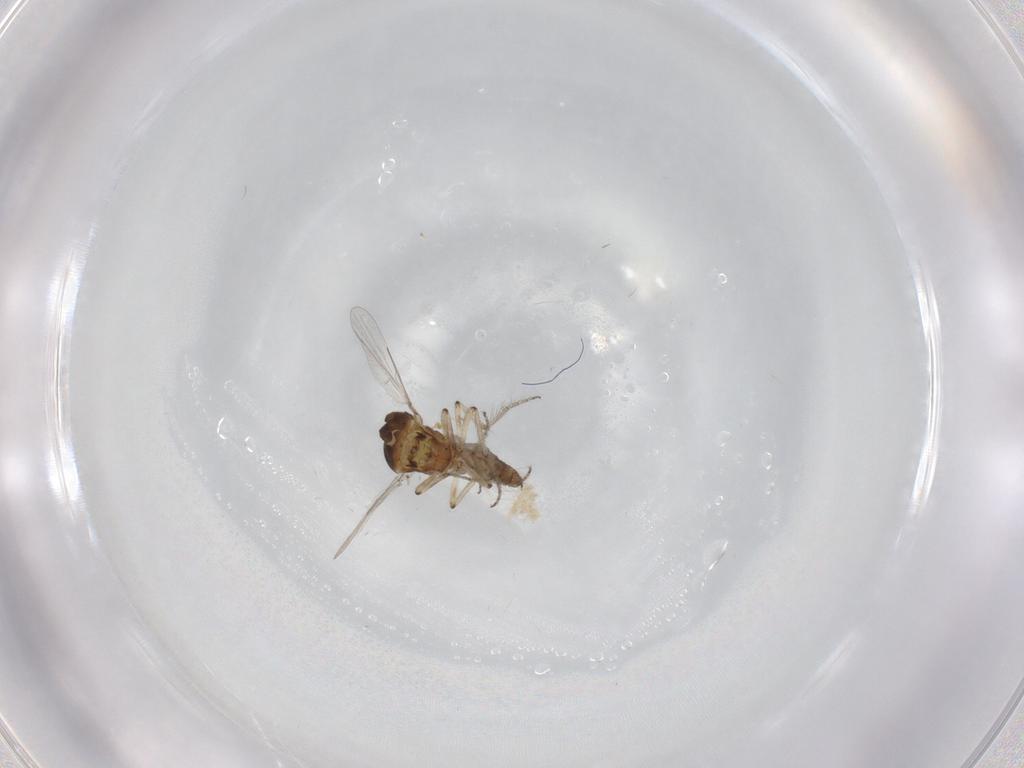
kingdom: Animalia
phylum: Arthropoda
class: Insecta
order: Diptera
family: Ceratopogonidae
